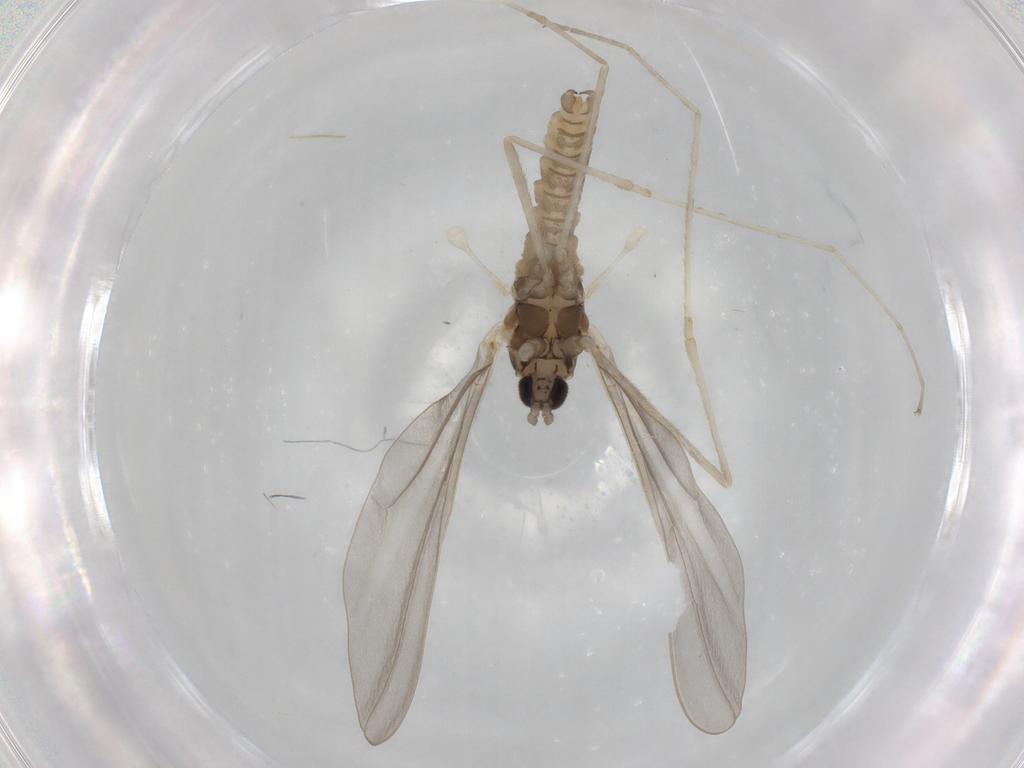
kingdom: Animalia
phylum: Arthropoda
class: Insecta
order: Diptera
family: Cecidomyiidae
